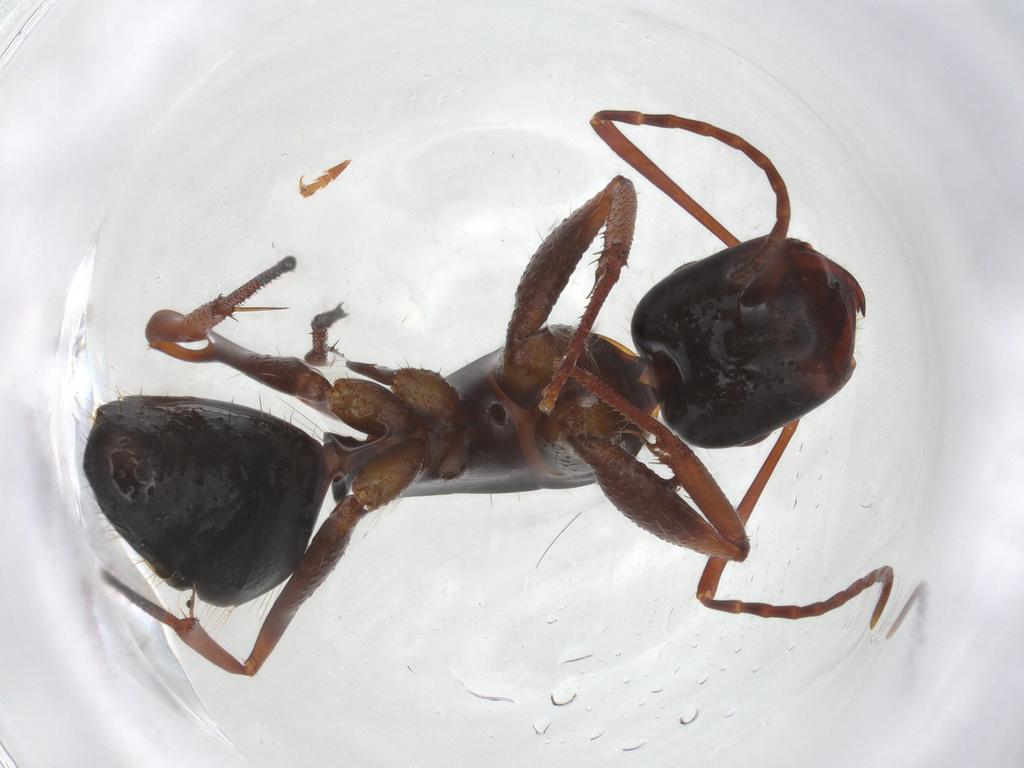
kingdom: Animalia
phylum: Arthropoda
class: Insecta
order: Hymenoptera
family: Formicidae
